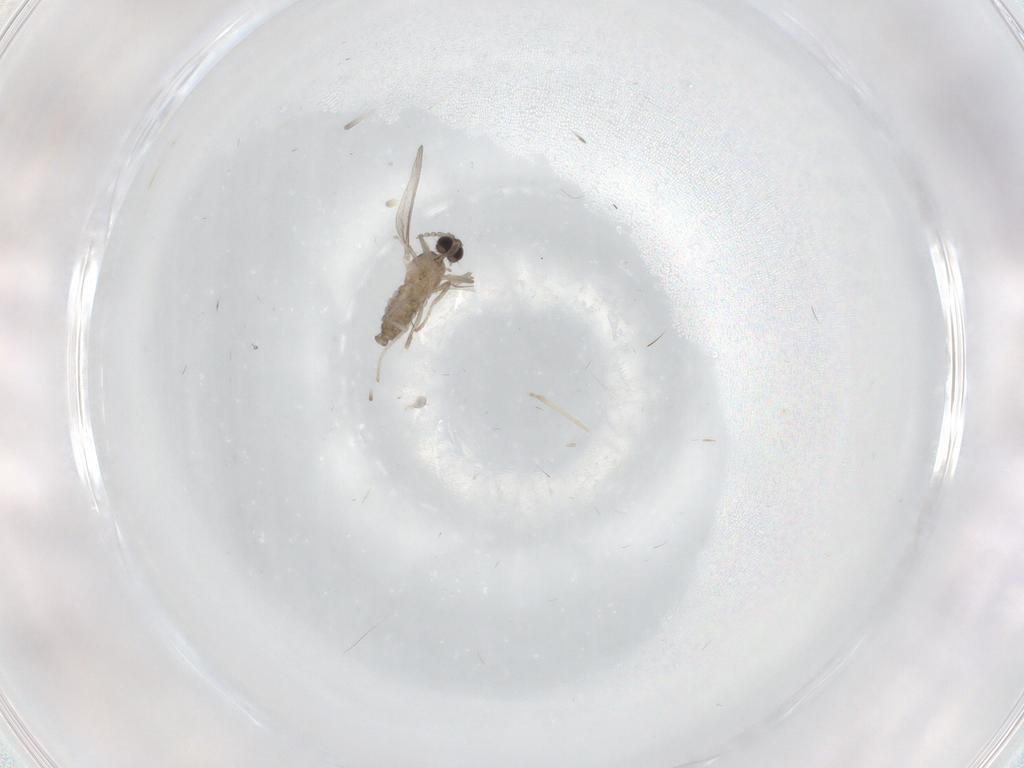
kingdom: Animalia
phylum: Arthropoda
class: Insecta
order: Diptera
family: Cecidomyiidae
